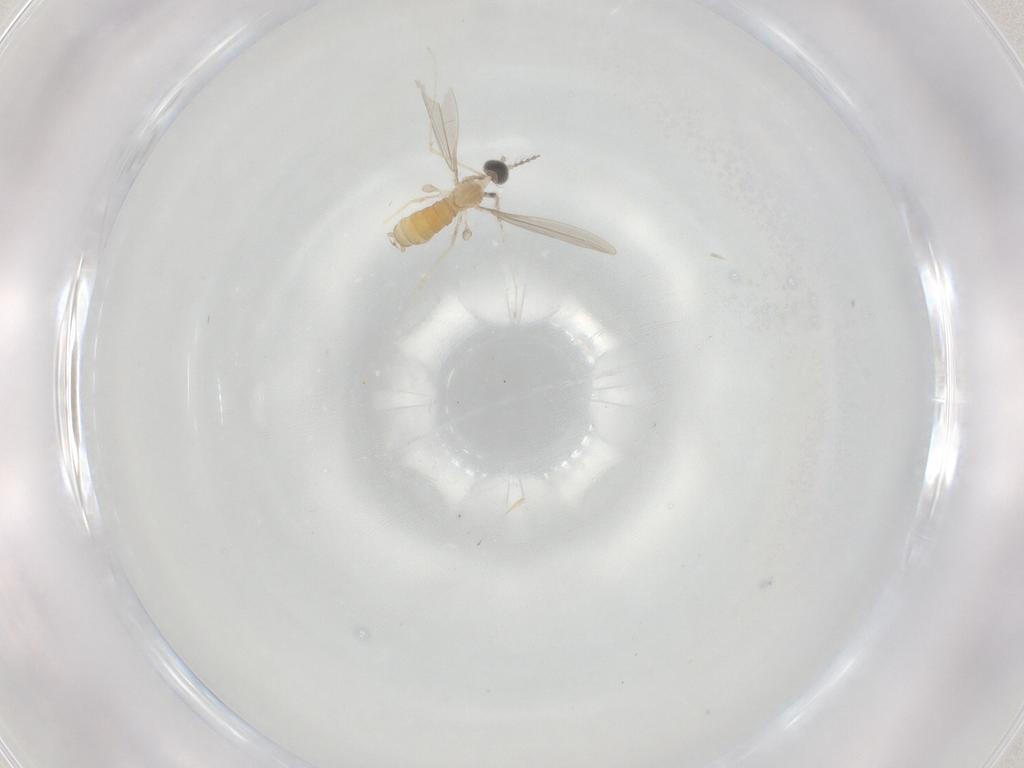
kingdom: Animalia
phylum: Arthropoda
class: Insecta
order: Diptera
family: Cecidomyiidae
